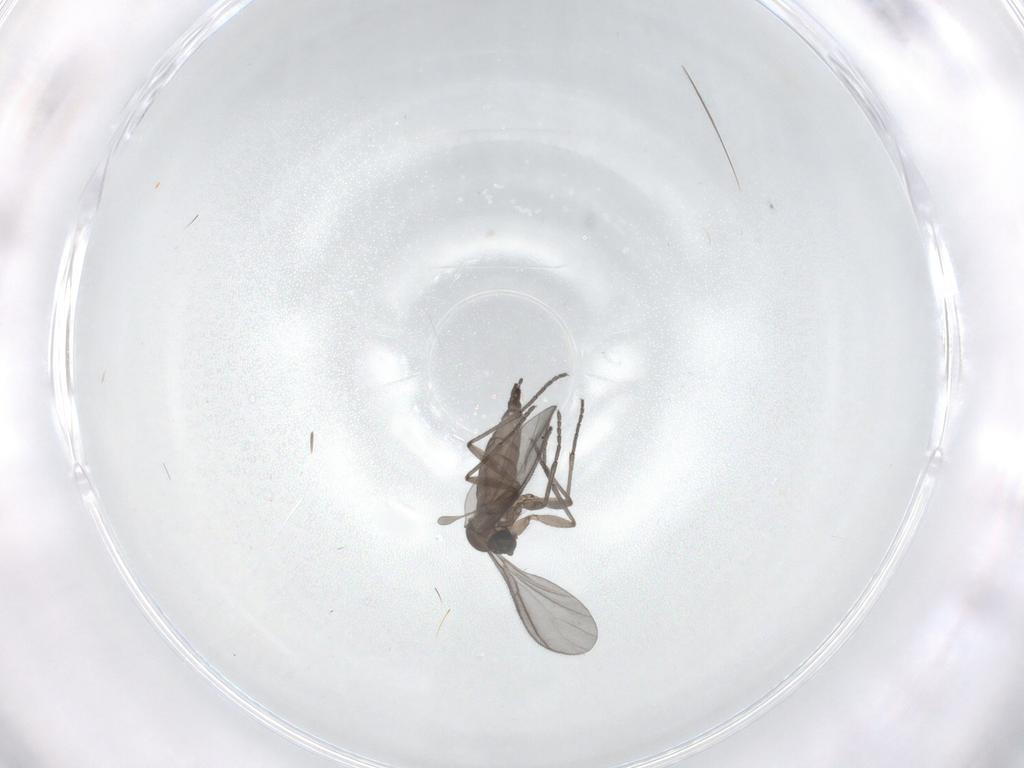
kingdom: Animalia
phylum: Arthropoda
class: Insecta
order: Diptera
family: Sciaridae
